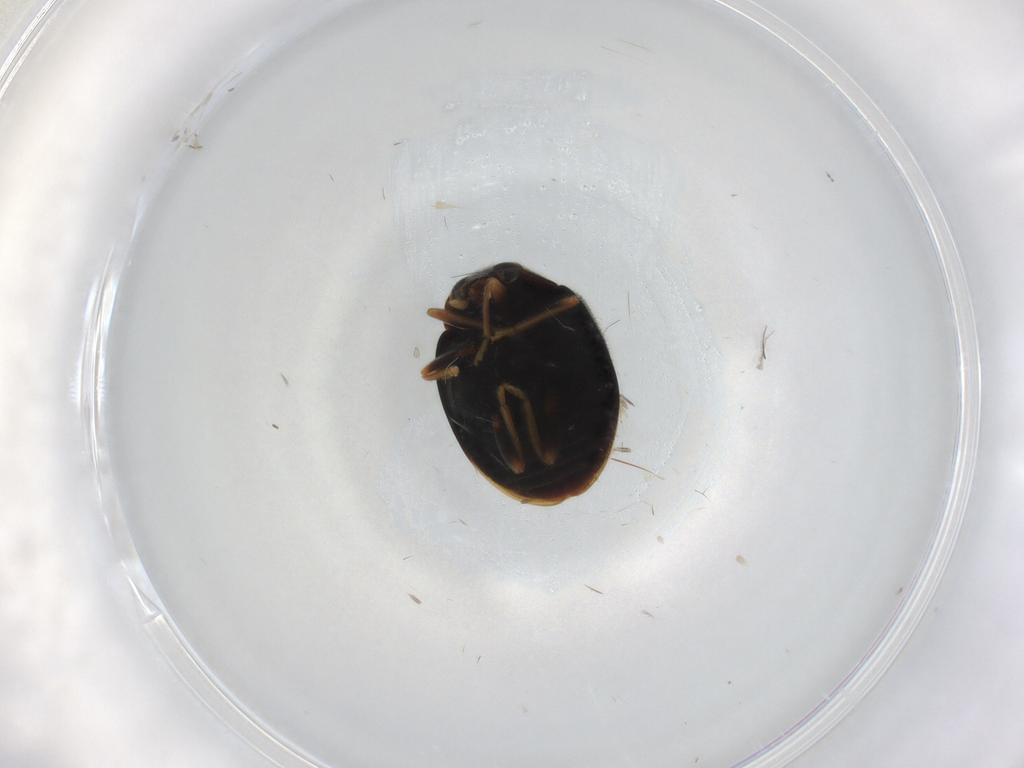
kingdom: Animalia
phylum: Arthropoda
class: Insecta
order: Coleoptera
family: Coccinellidae
